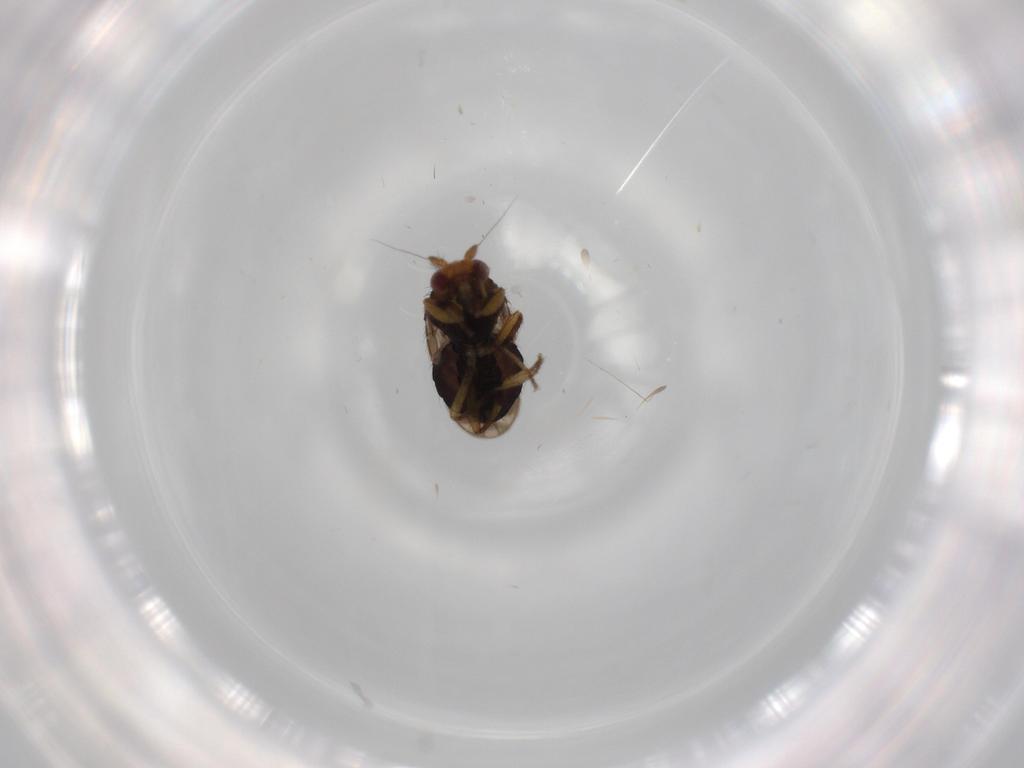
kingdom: Animalia
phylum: Arthropoda
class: Insecta
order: Diptera
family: Sphaeroceridae
